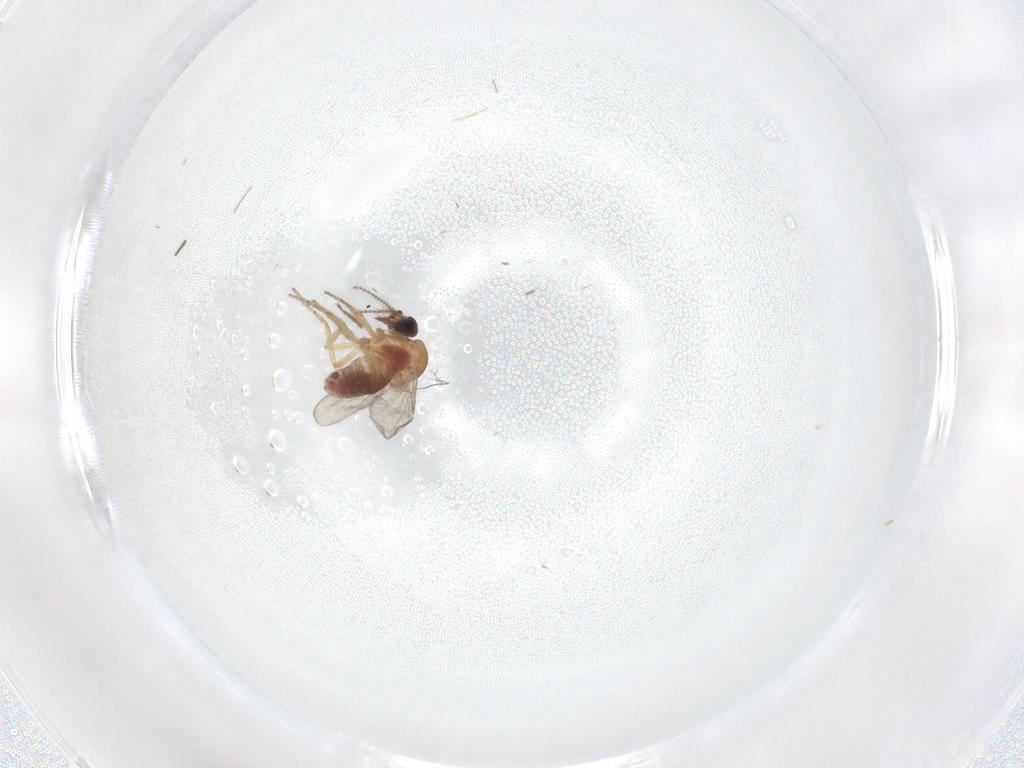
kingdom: Animalia
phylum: Arthropoda
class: Insecta
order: Diptera
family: Ceratopogonidae
